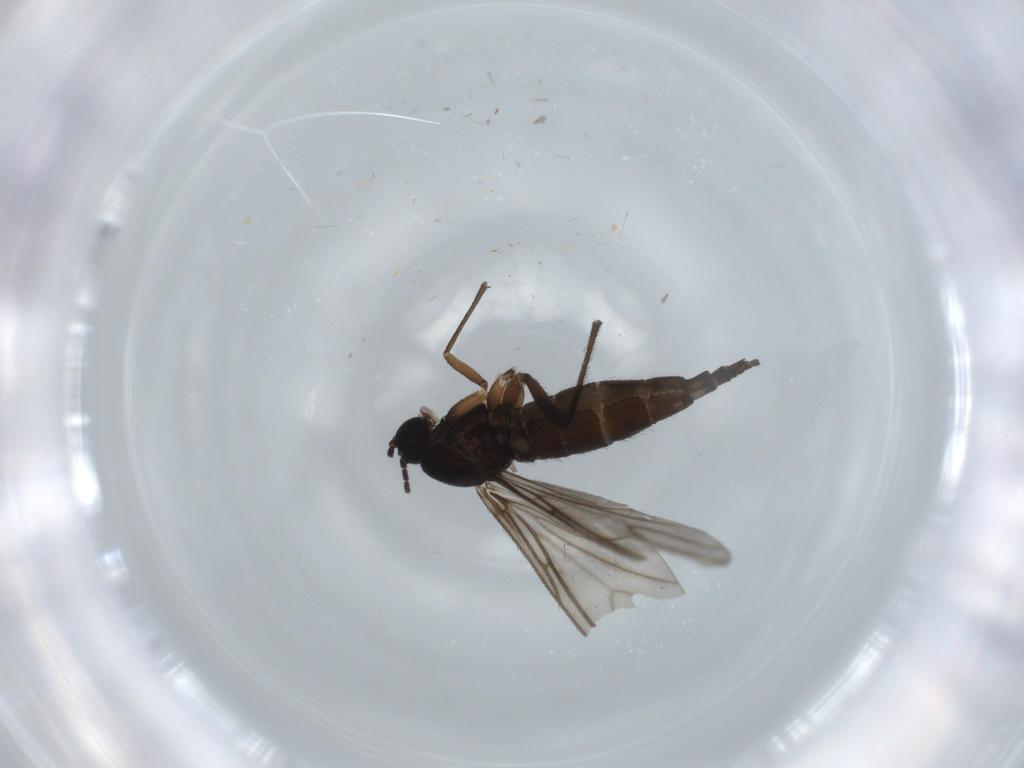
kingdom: Animalia
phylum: Arthropoda
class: Insecta
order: Diptera
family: Sciaridae
